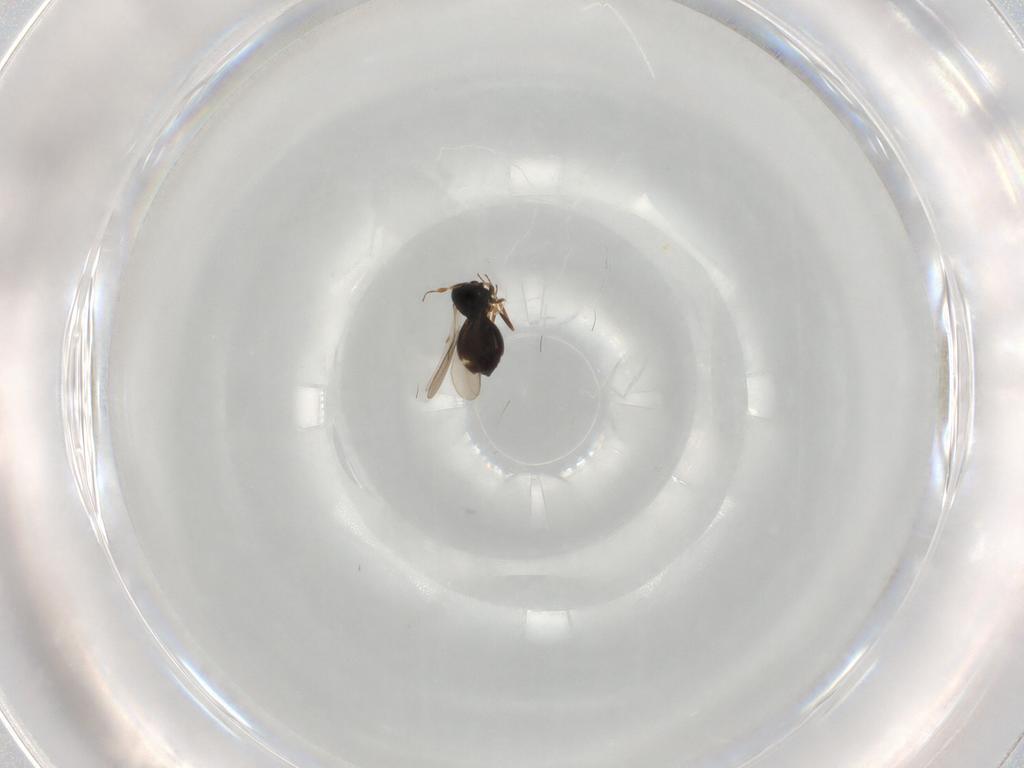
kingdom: Animalia
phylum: Arthropoda
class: Insecta
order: Hymenoptera
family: Scelionidae
